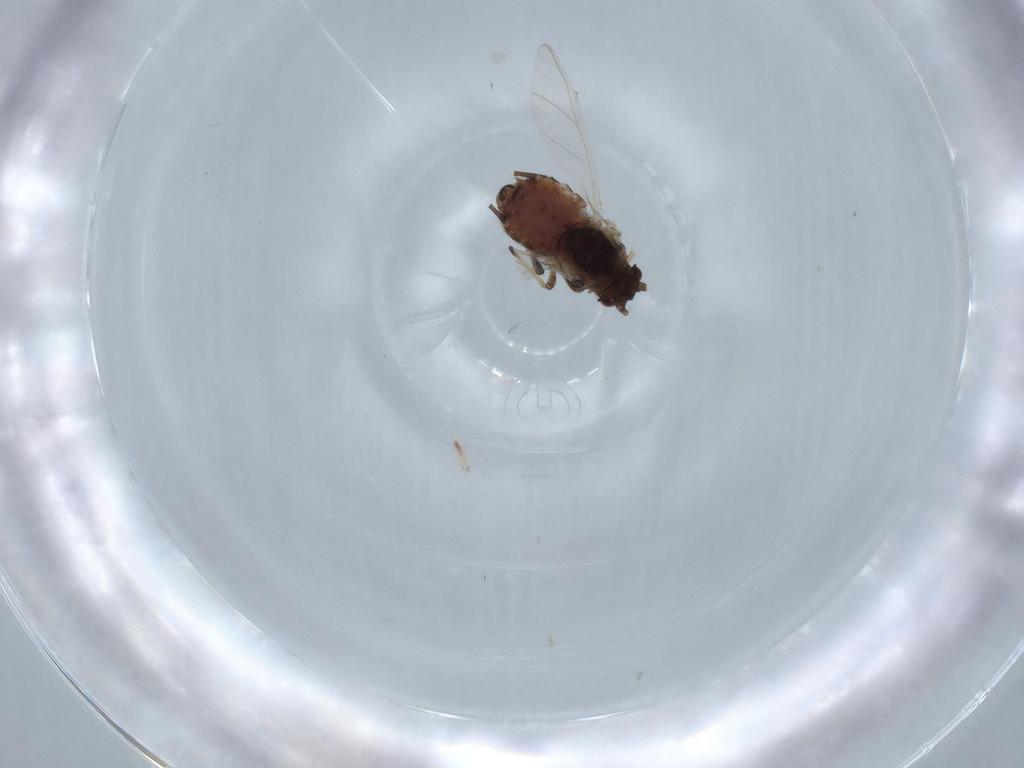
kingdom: Animalia
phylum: Arthropoda
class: Insecta
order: Hemiptera
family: Aphididae
